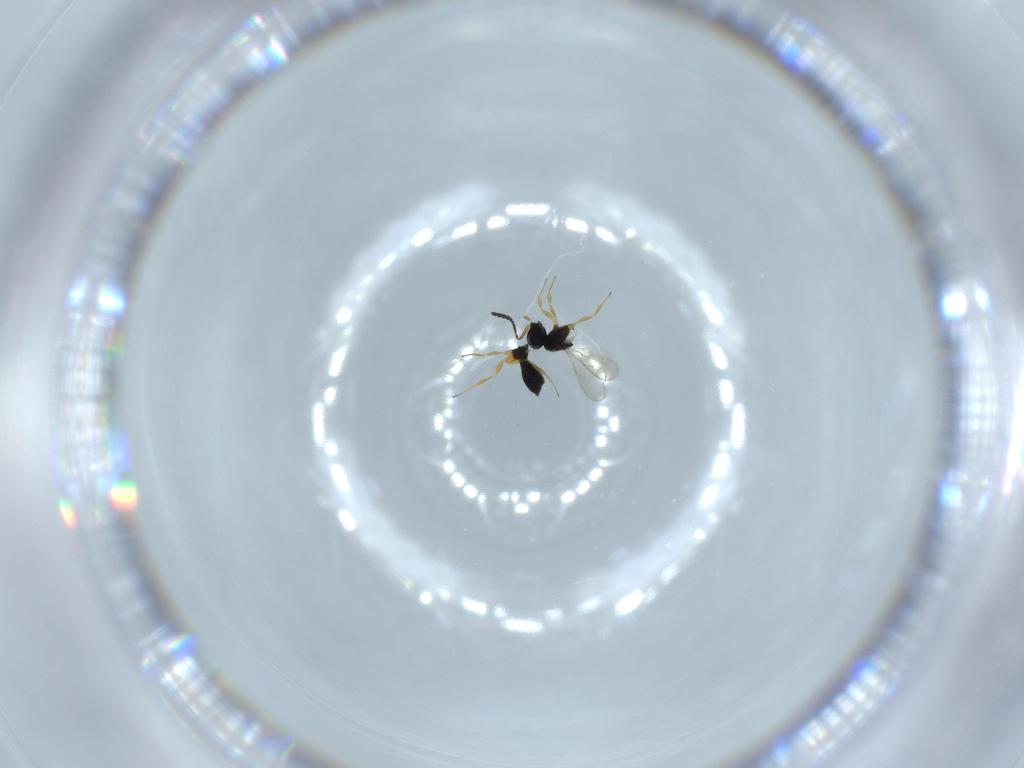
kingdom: Animalia
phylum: Arthropoda
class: Insecta
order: Hymenoptera
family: Scelionidae
